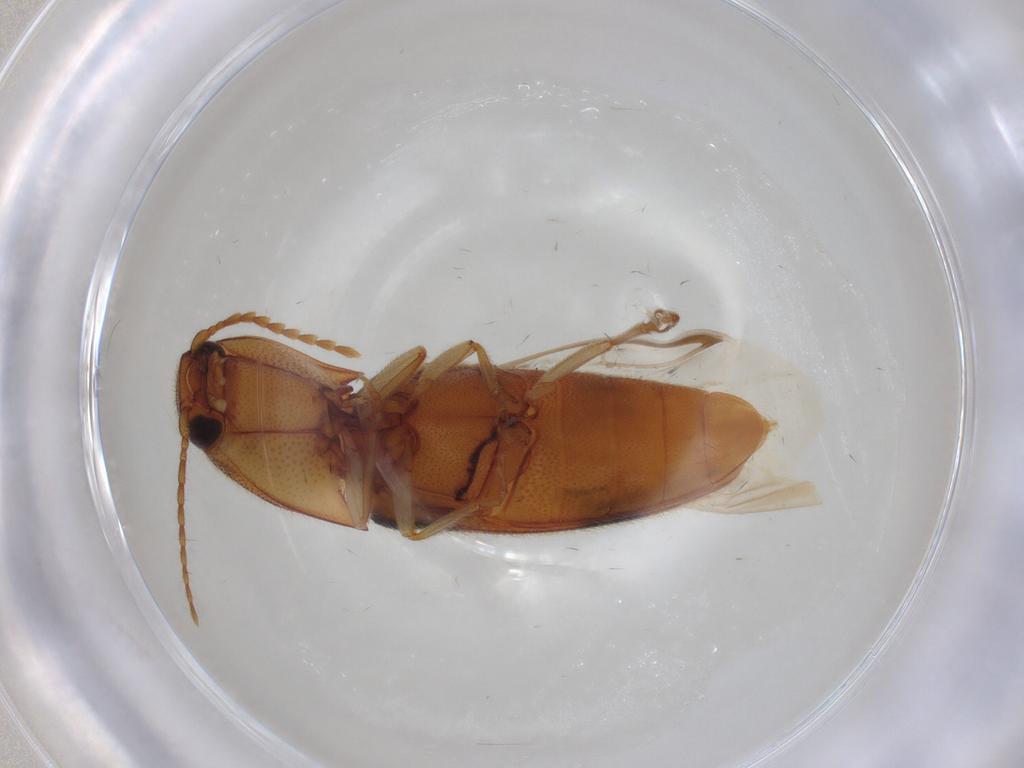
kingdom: Animalia
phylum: Arthropoda
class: Insecta
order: Coleoptera
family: Elateridae
